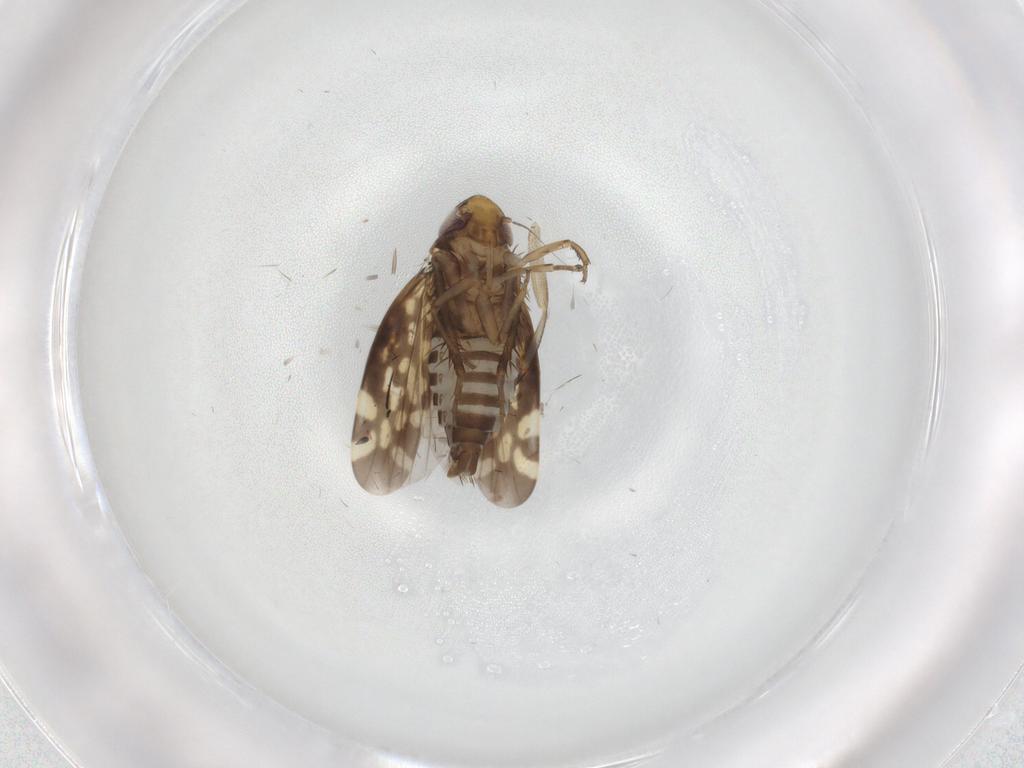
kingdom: Animalia
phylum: Arthropoda
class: Insecta
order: Hemiptera
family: Cicadellidae
